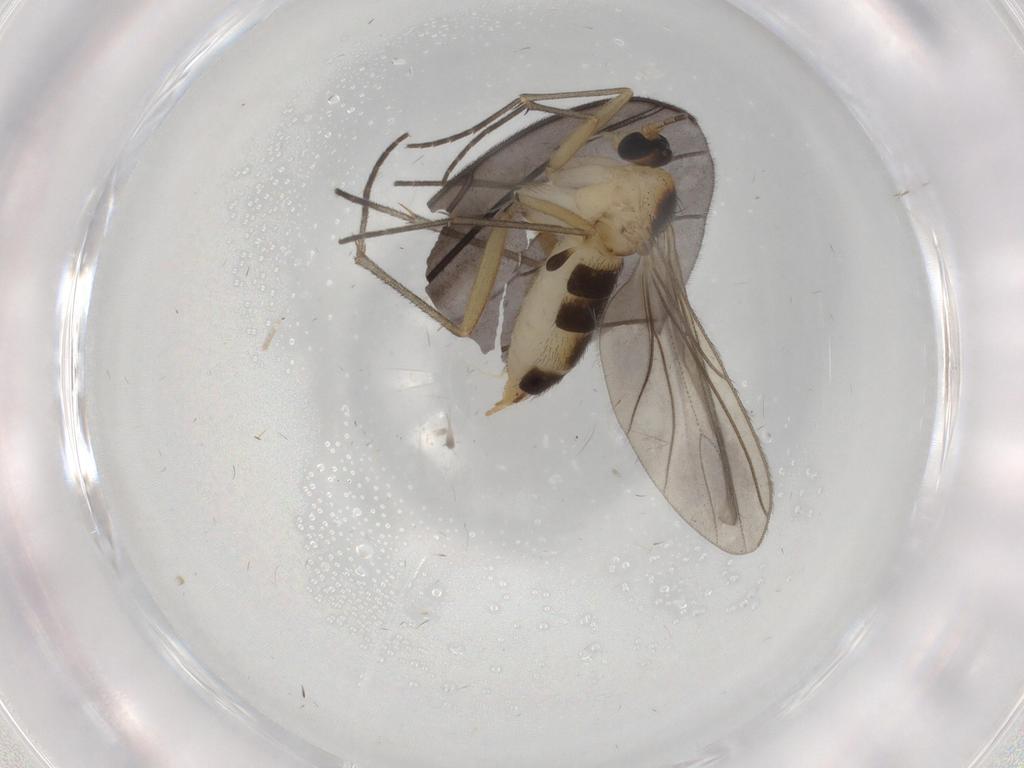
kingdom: Animalia
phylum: Arthropoda
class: Insecta
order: Diptera
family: Sciaridae
